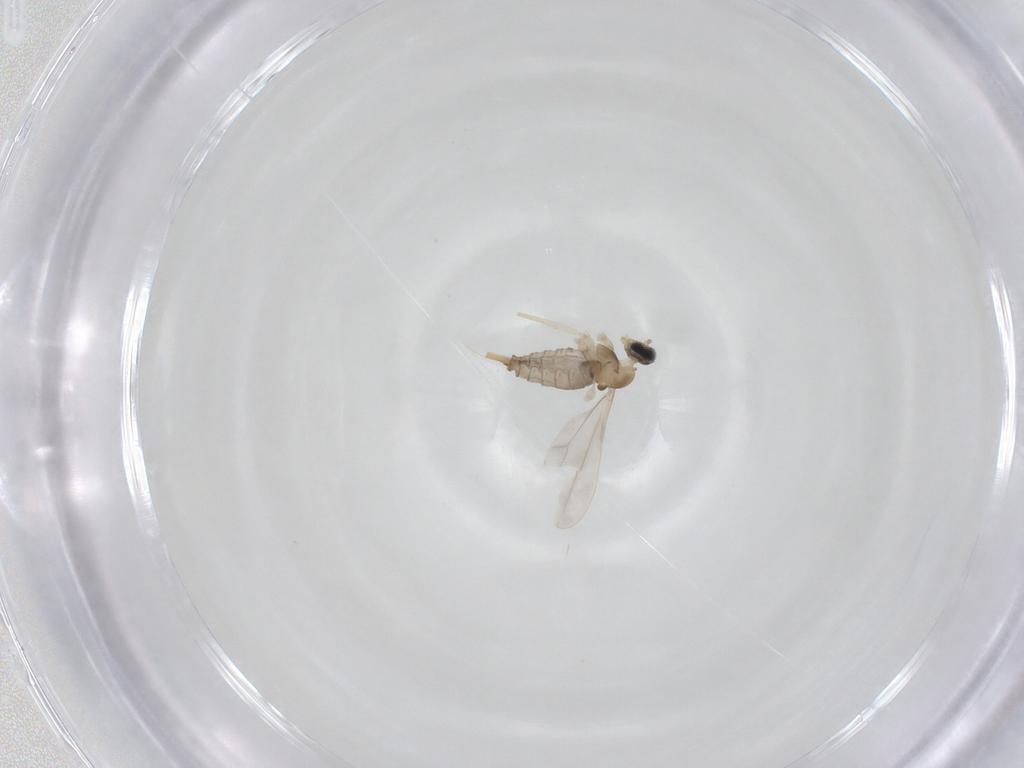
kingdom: Animalia
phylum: Arthropoda
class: Insecta
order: Diptera
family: Cecidomyiidae
